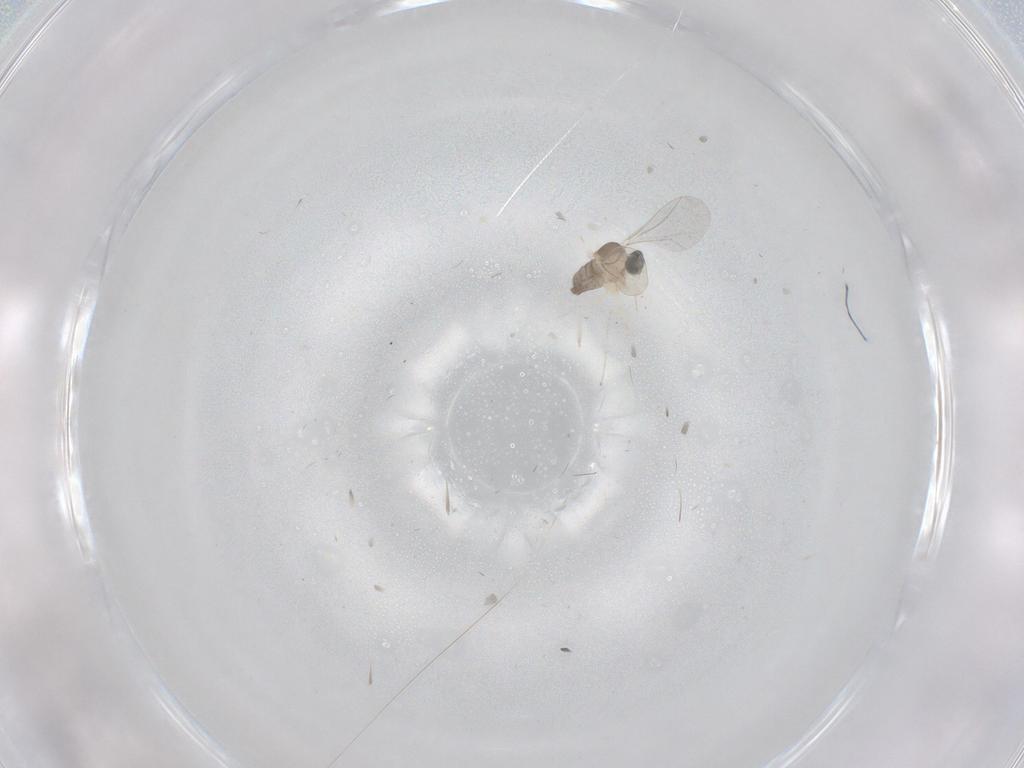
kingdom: Animalia
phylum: Arthropoda
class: Insecta
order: Diptera
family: Cecidomyiidae
